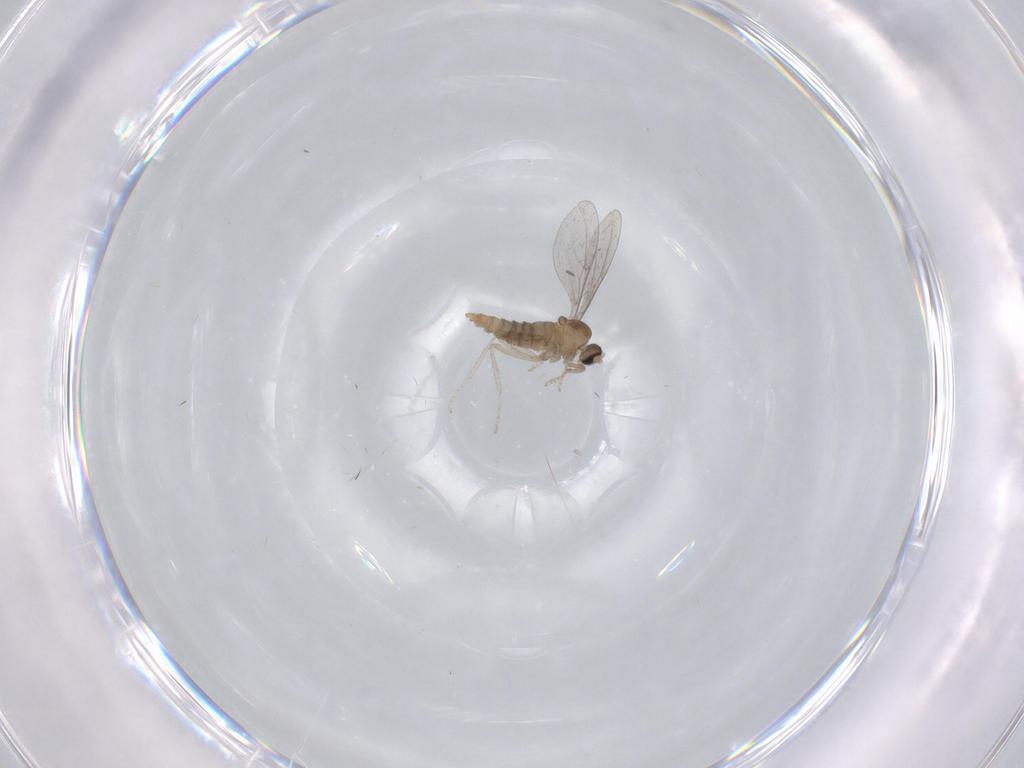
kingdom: Animalia
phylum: Arthropoda
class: Insecta
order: Diptera
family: Cecidomyiidae
